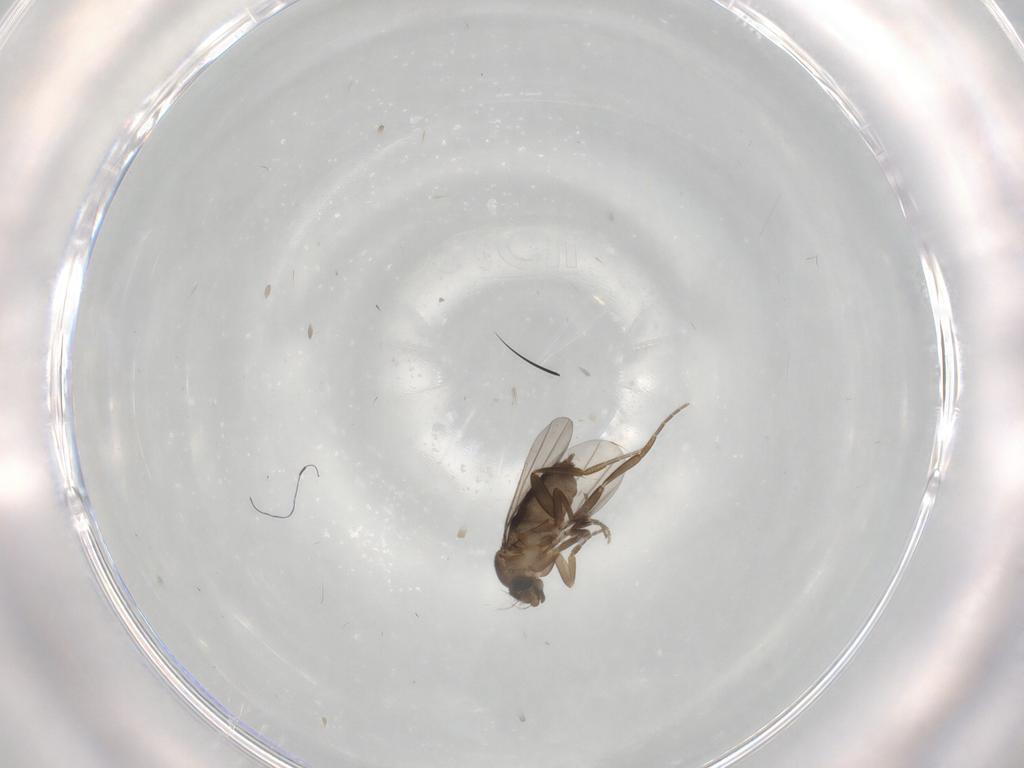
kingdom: Animalia
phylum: Arthropoda
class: Insecta
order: Diptera
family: Phoridae
